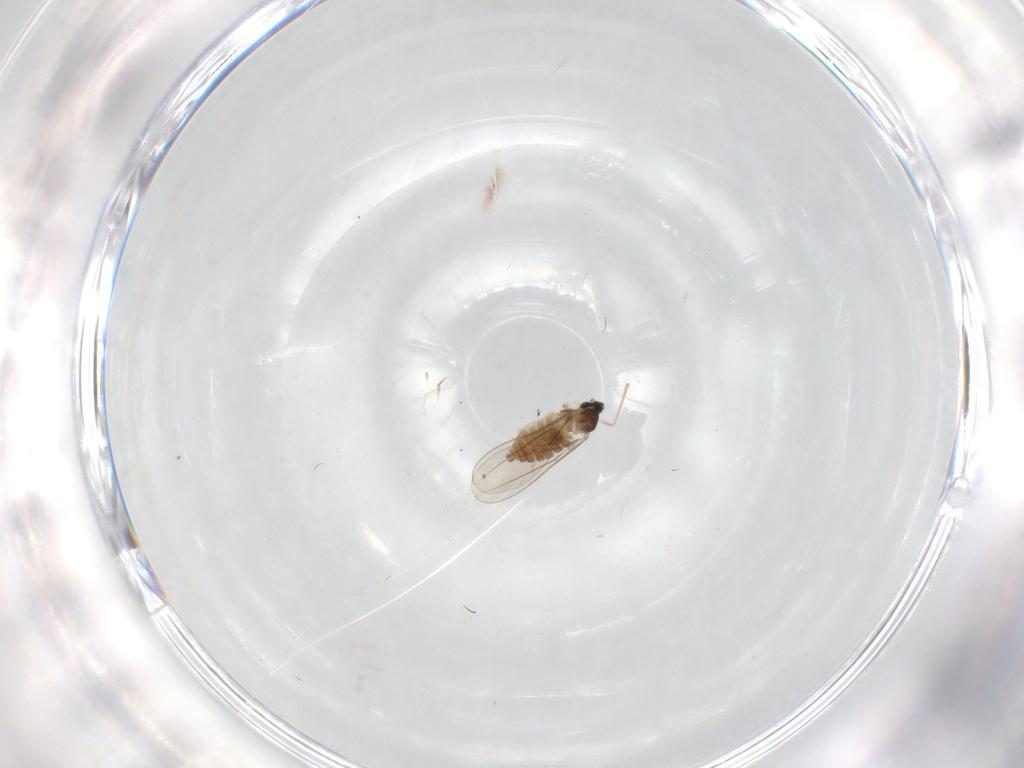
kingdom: Animalia
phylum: Arthropoda
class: Insecta
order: Diptera
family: Cecidomyiidae
